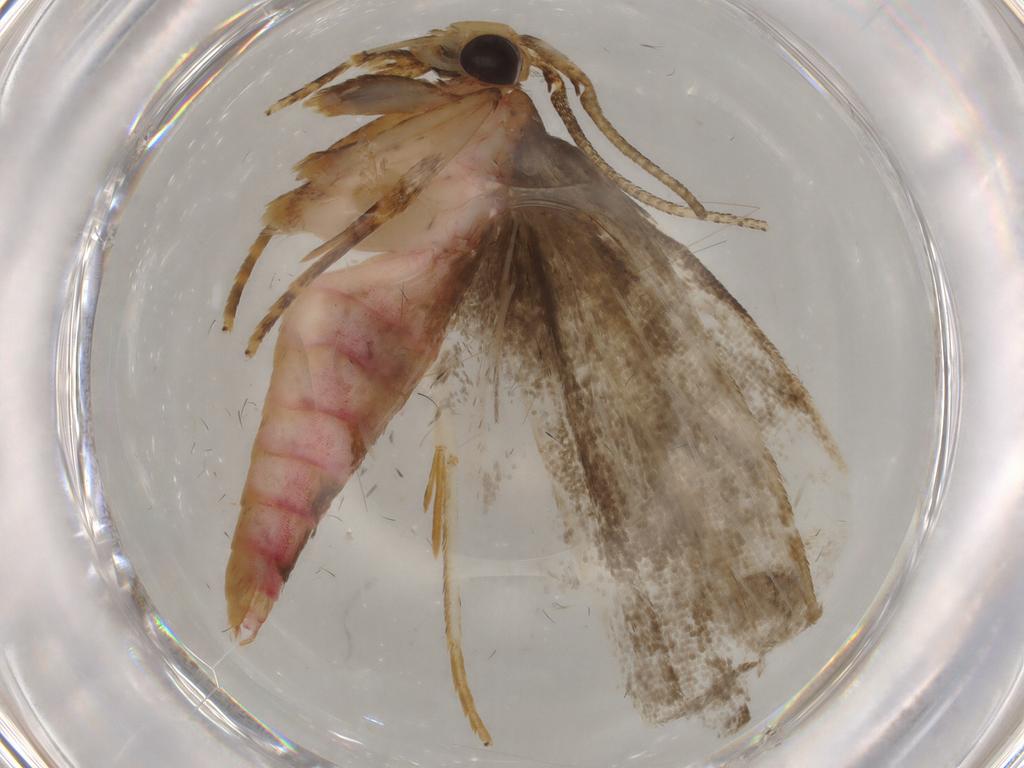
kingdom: Animalia
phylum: Arthropoda
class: Insecta
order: Lepidoptera
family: Autostichidae
